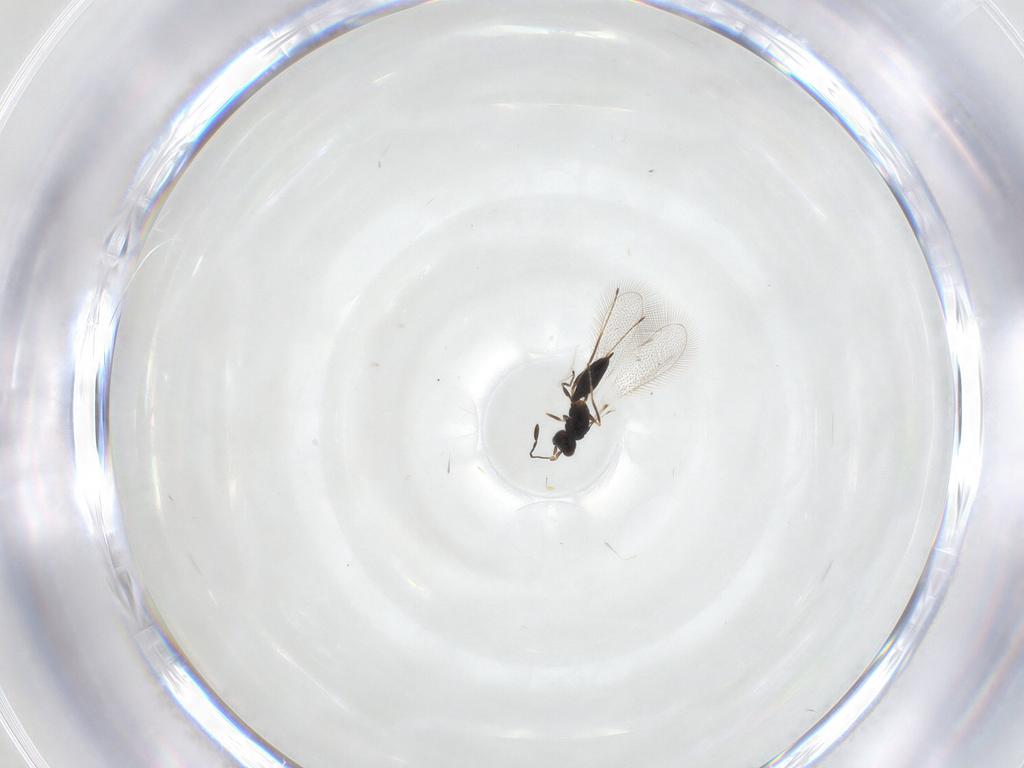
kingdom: Animalia
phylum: Arthropoda
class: Insecta
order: Hymenoptera
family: Mymaridae
